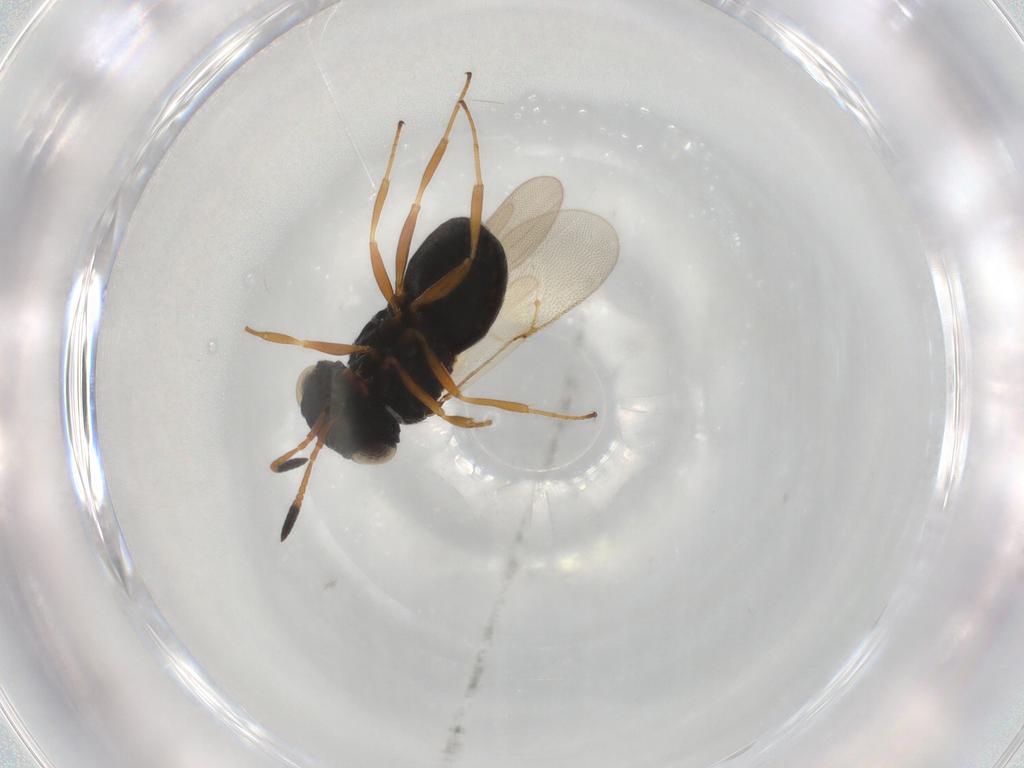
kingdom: Animalia
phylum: Arthropoda
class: Insecta
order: Hymenoptera
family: Scelionidae
